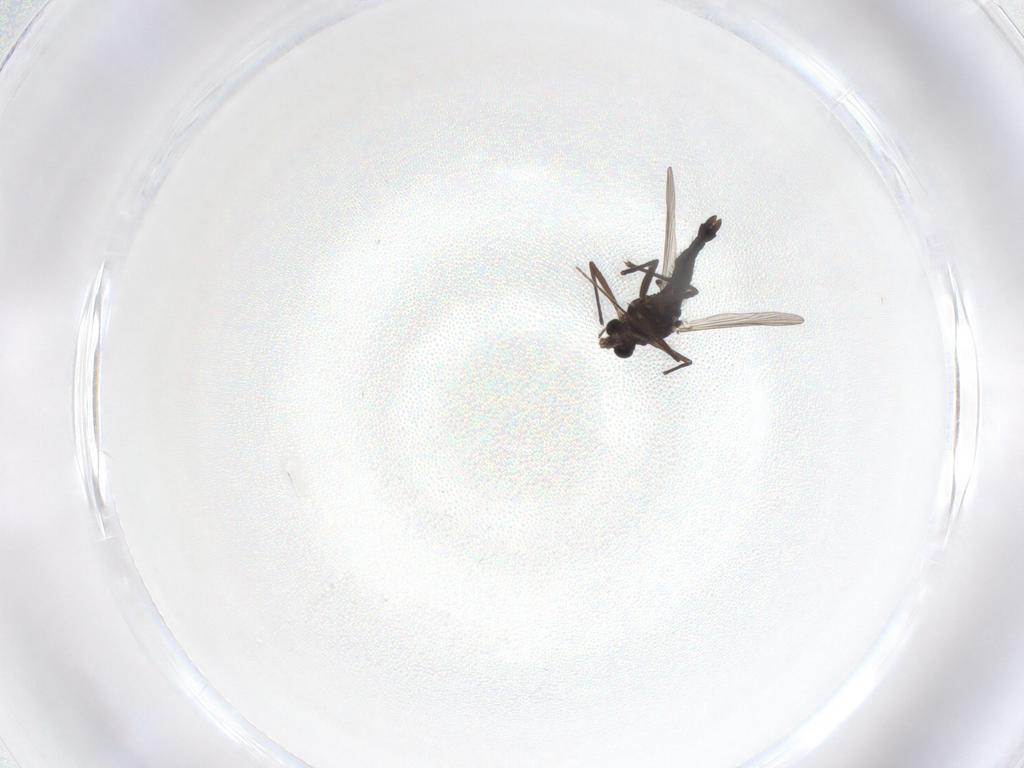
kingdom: Animalia
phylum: Arthropoda
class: Insecta
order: Diptera
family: Chironomidae
